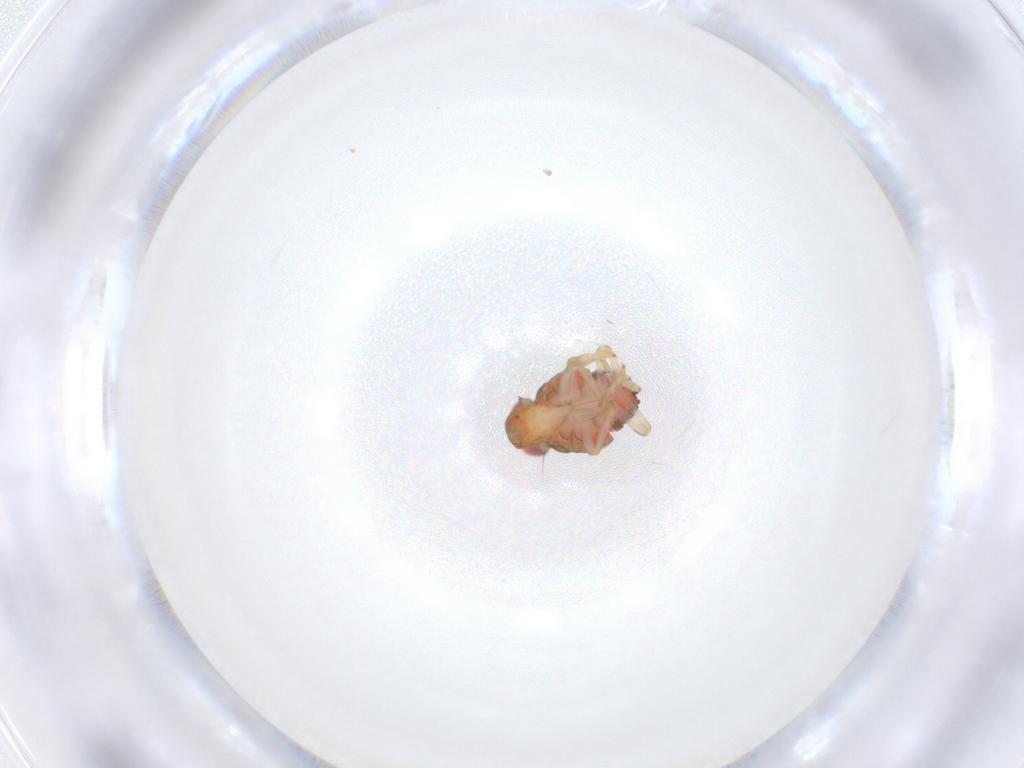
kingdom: Animalia
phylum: Arthropoda
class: Insecta
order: Hemiptera
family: Issidae
